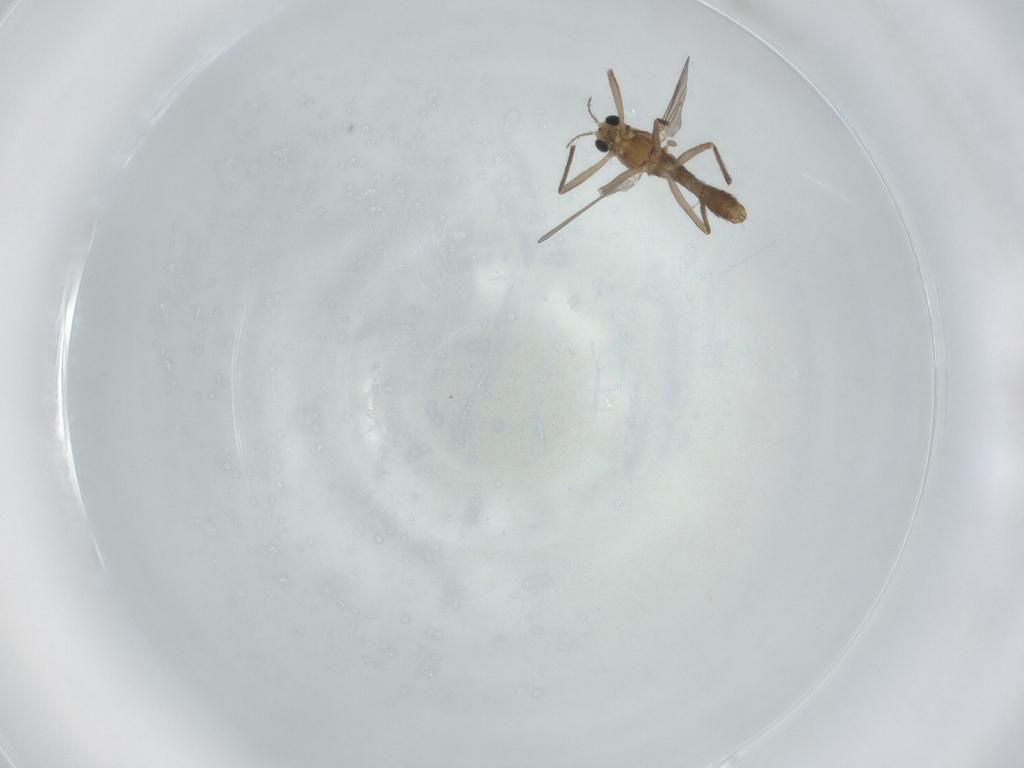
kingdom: Animalia
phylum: Arthropoda
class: Insecta
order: Diptera
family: Chironomidae
